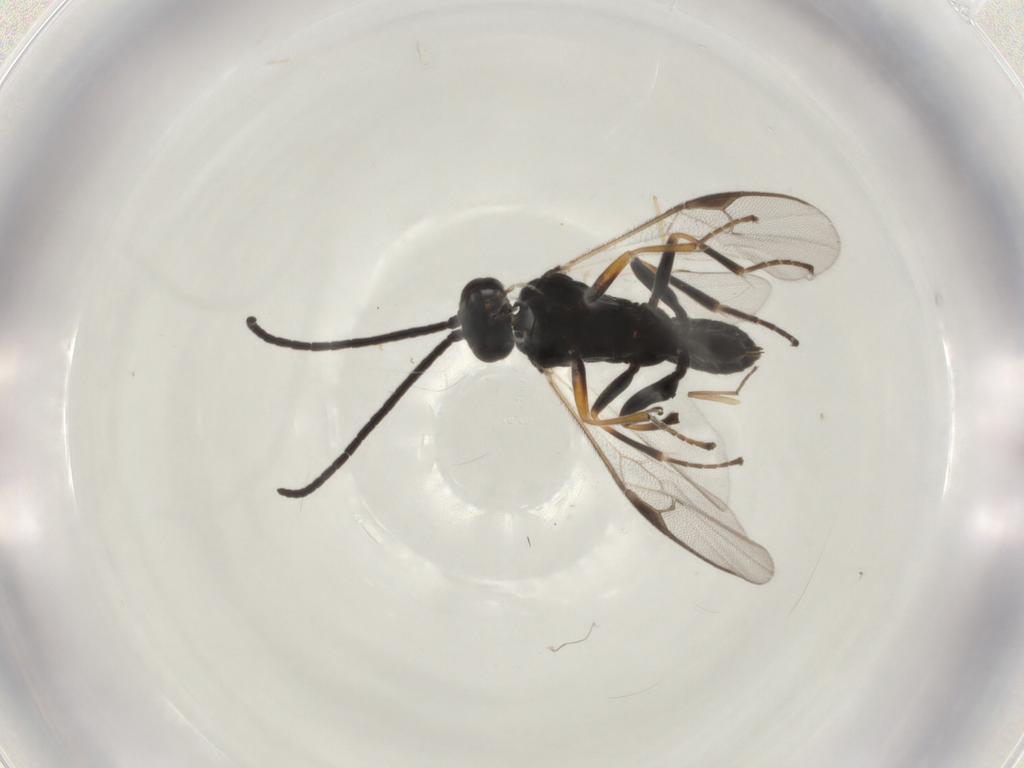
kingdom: Animalia
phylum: Arthropoda
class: Insecta
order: Hymenoptera
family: Braconidae
